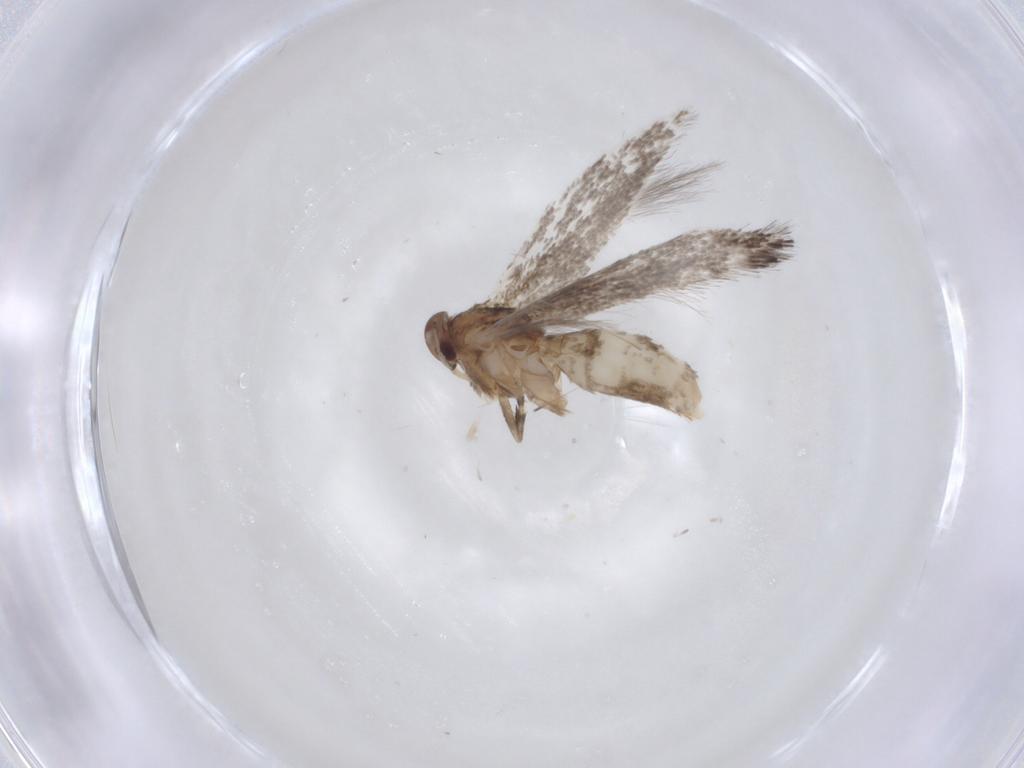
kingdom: Animalia
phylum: Arthropoda
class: Insecta
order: Lepidoptera
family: Elachistidae
